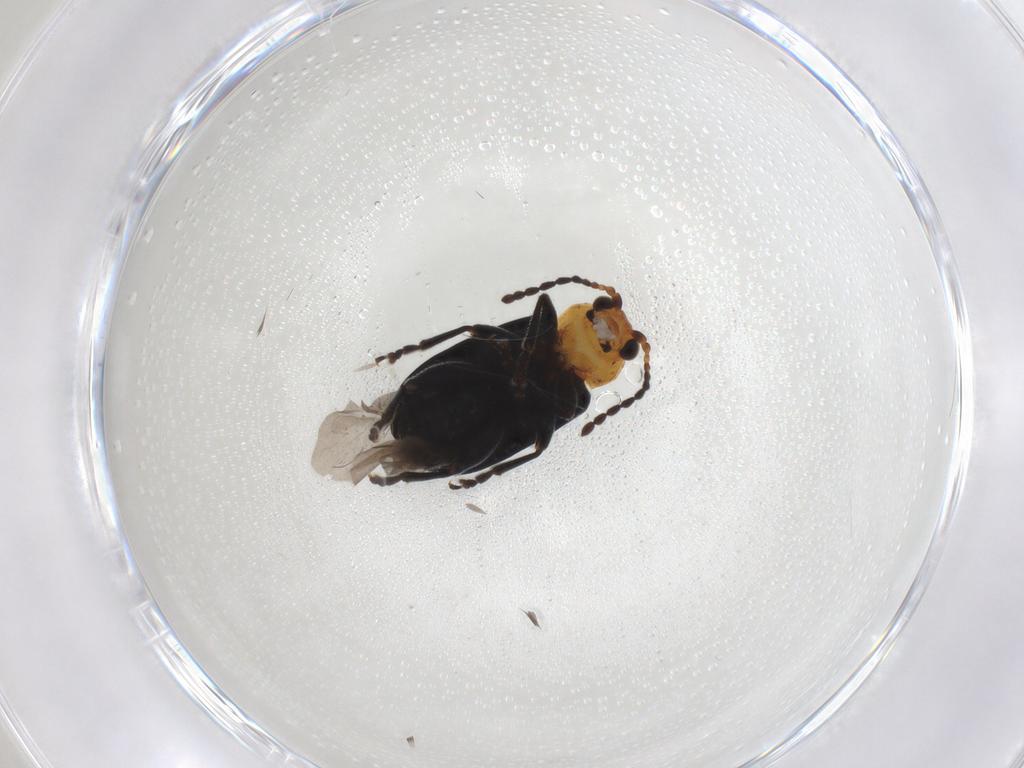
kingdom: Animalia
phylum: Arthropoda
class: Insecta
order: Coleoptera
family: Chrysomelidae
